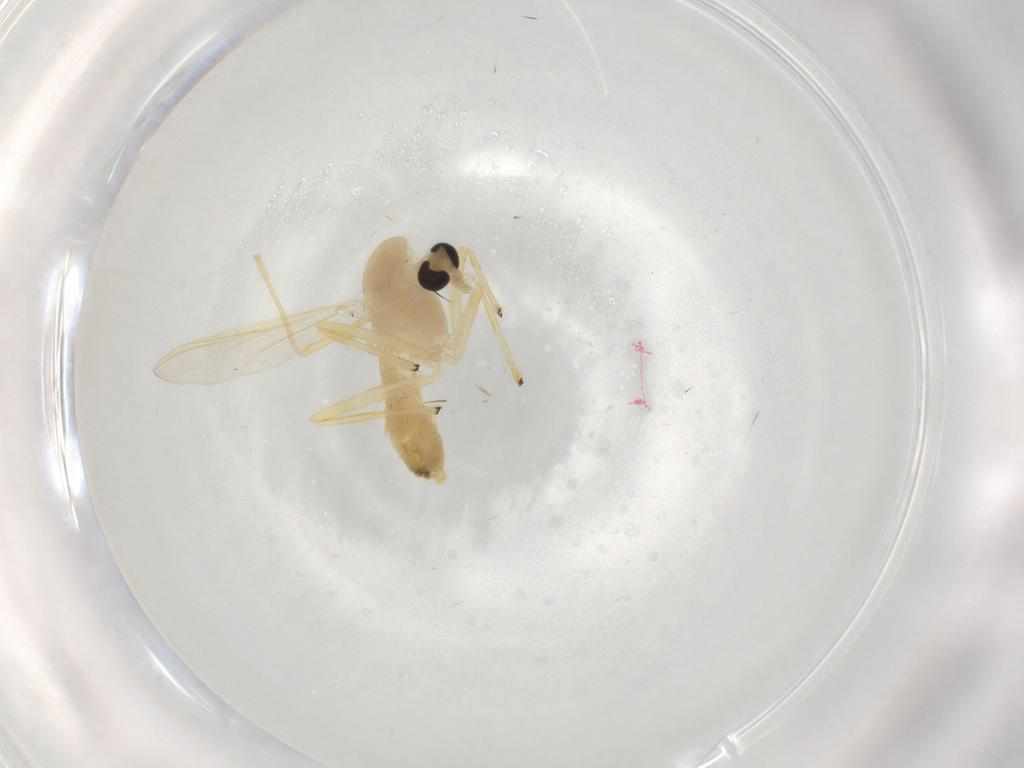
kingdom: Animalia
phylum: Arthropoda
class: Insecta
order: Diptera
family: Chironomidae
